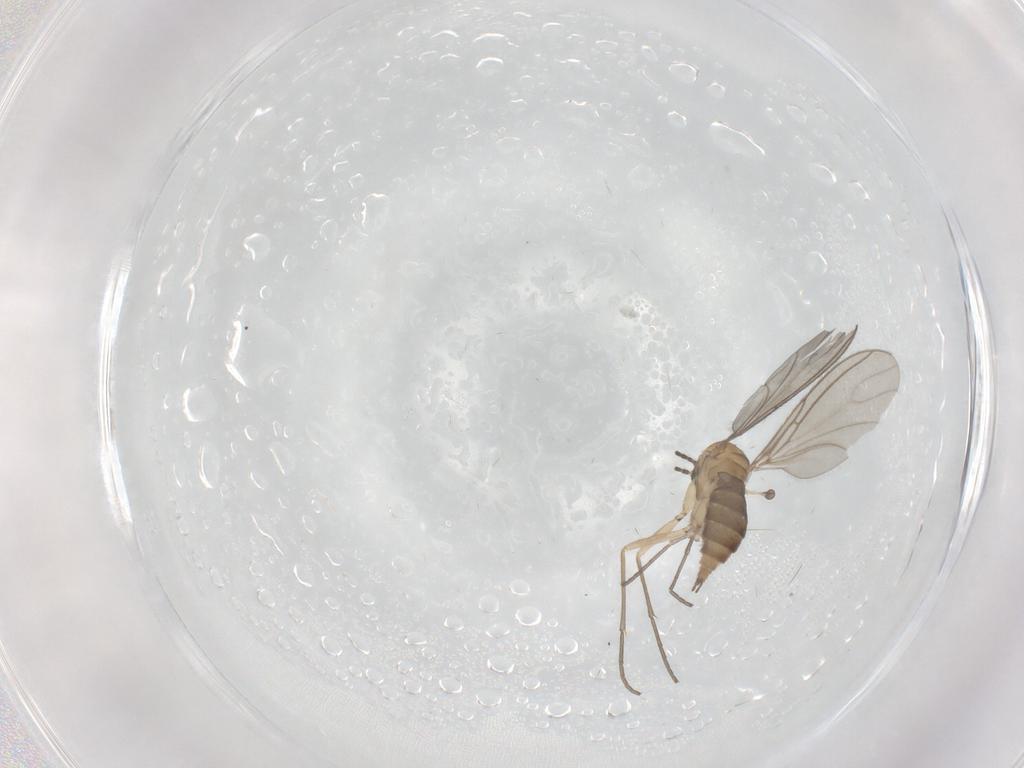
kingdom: Animalia
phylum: Arthropoda
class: Insecta
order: Diptera
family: Sciaridae
